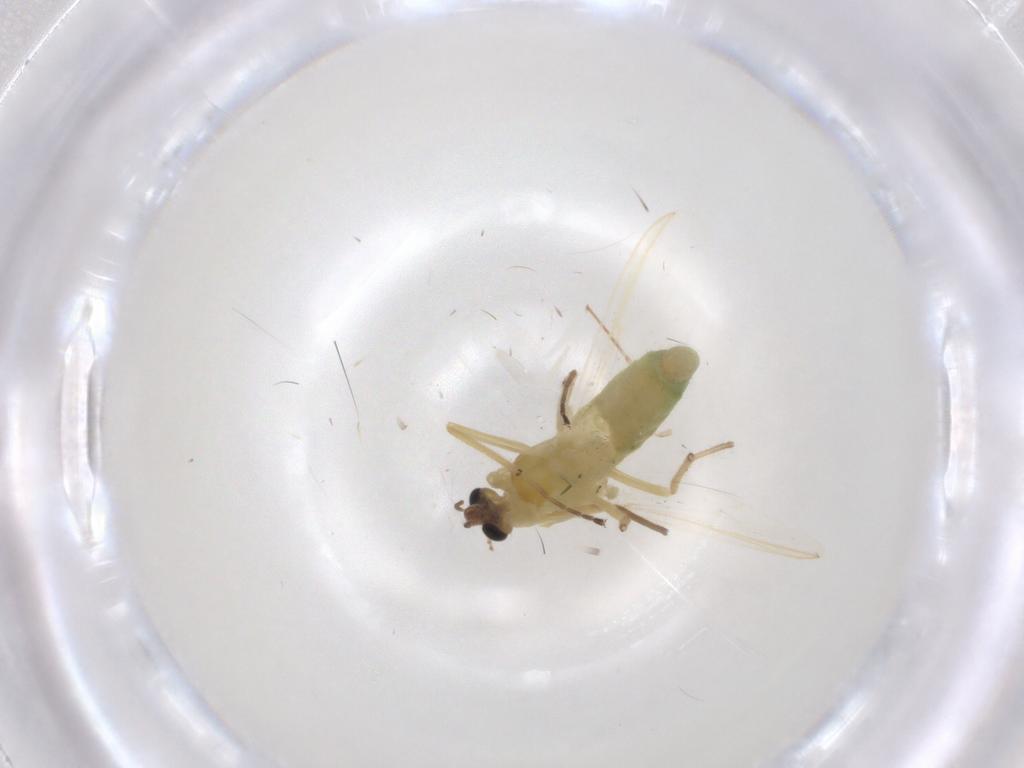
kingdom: Animalia
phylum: Arthropoda
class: Insecta
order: Diptera
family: Chironomidae
